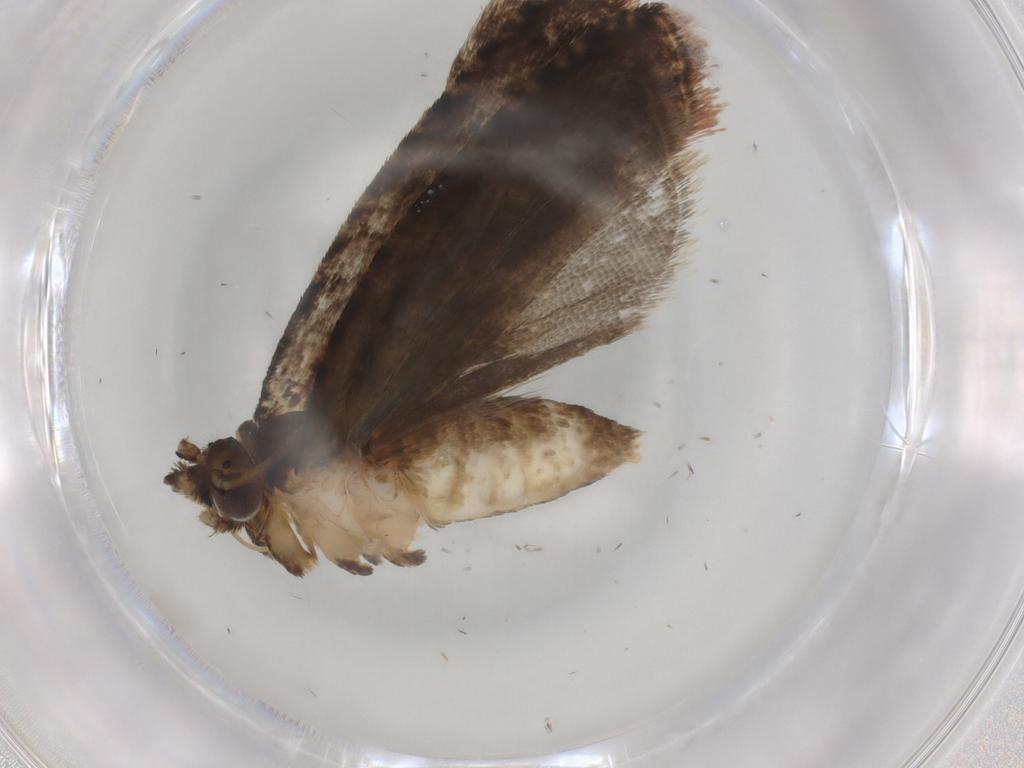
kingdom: Animalia
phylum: Arthropoda
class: Insecta
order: Lepidoptera
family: Tortricidae
